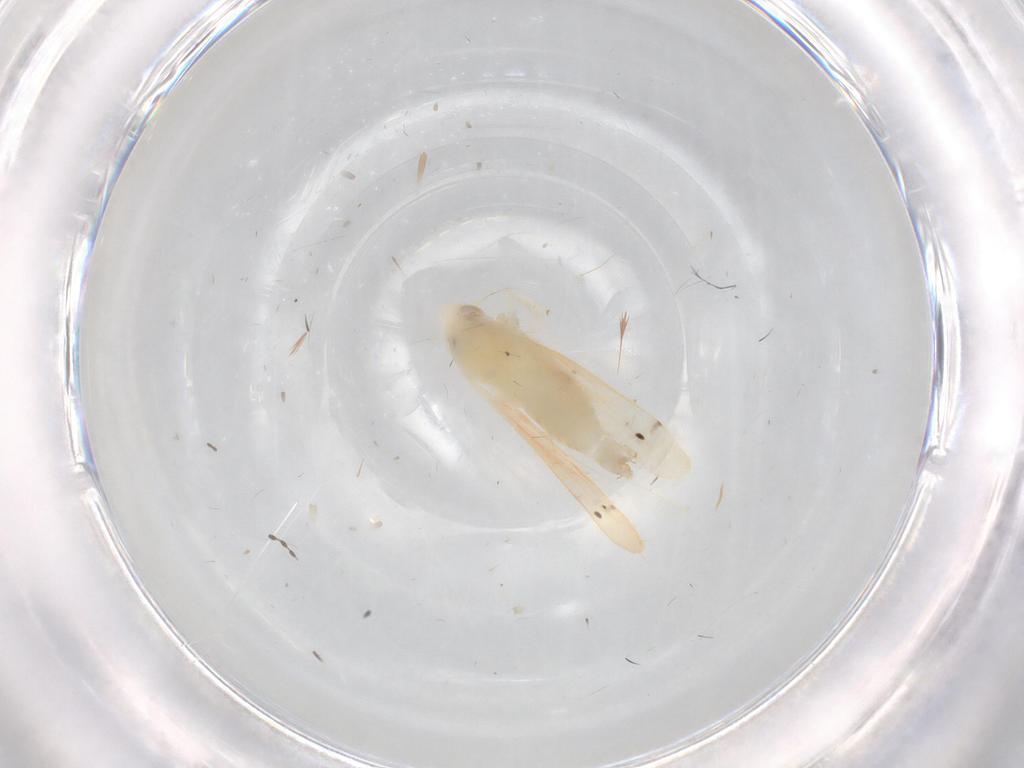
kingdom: Animalia
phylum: Arthropoda
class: Insecta
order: Hemiptera
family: Cicadellidae
